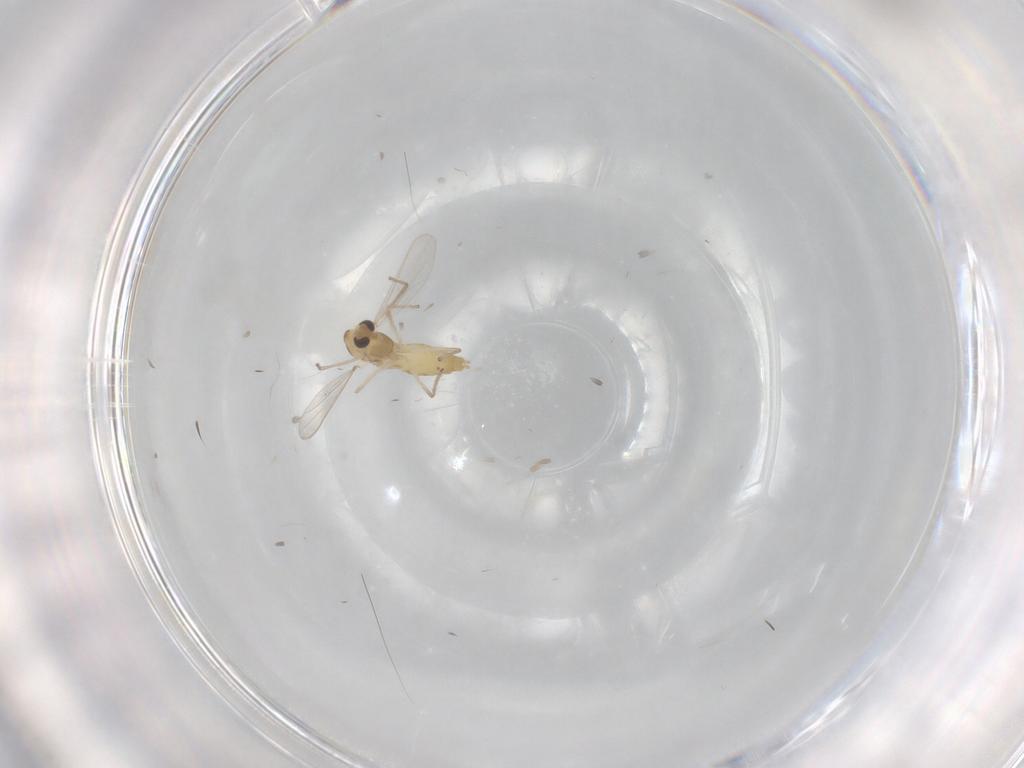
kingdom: Animalia
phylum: Arthropoda
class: Insecta
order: Diptera
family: Chironomidae
